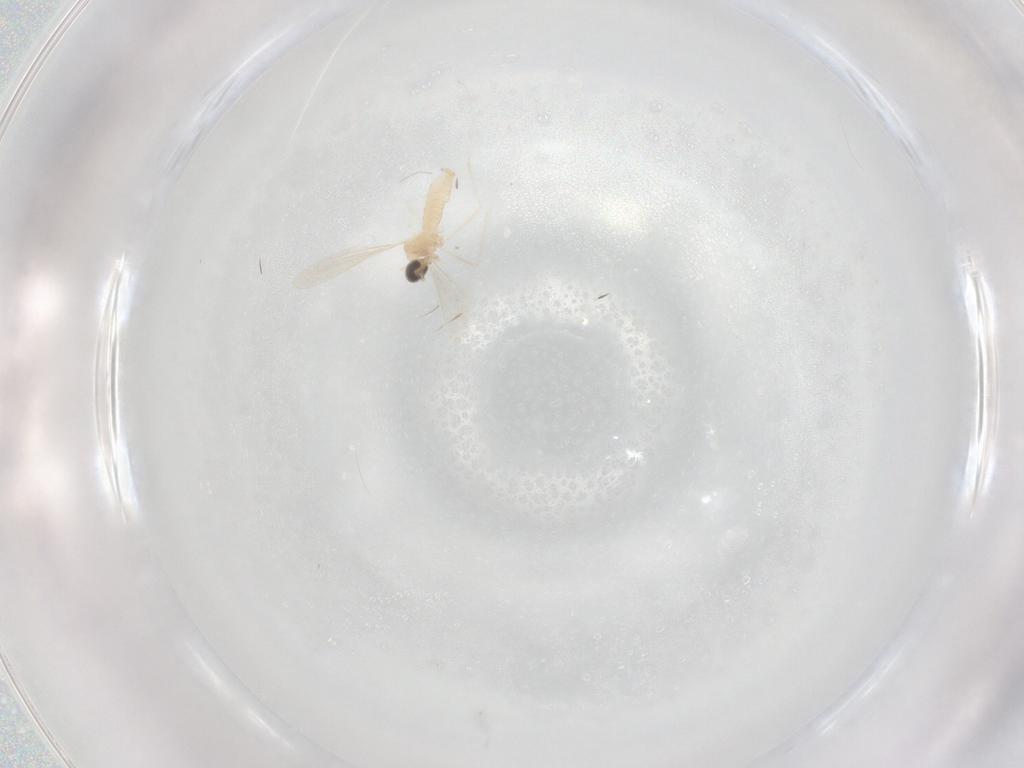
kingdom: Animalia
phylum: Arthropoda
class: Insecta
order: Diptera
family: Cecidomyiidae
